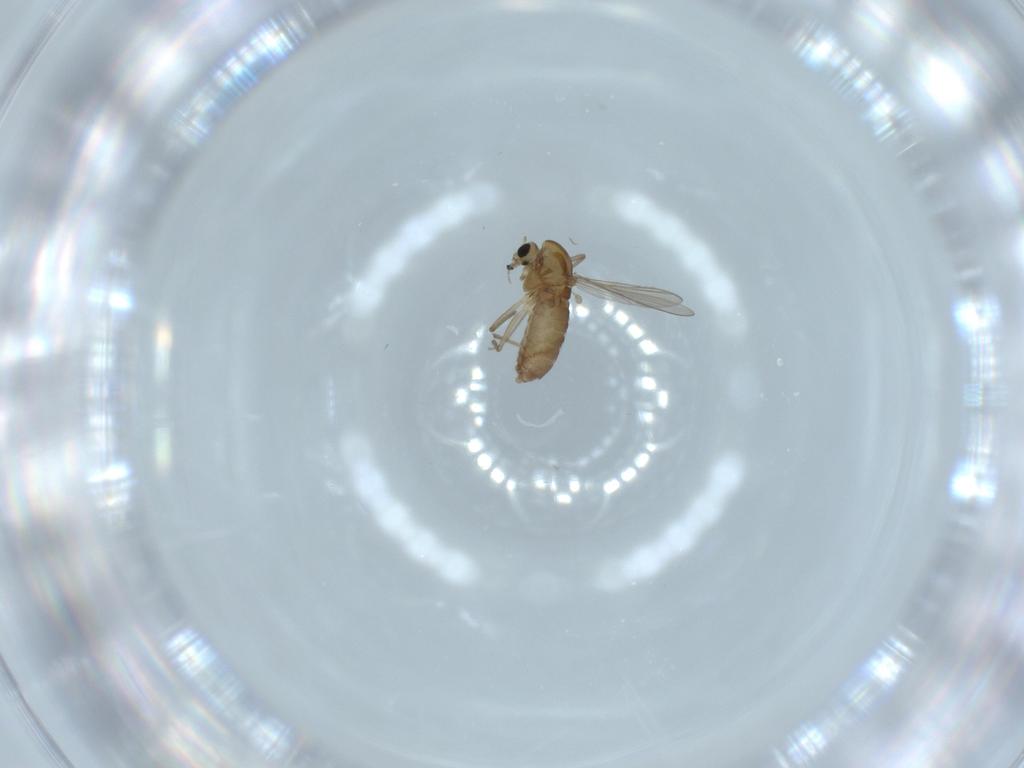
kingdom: Animalia
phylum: Arthropoda
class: Insecta
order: Diptera
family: Chironomidae
